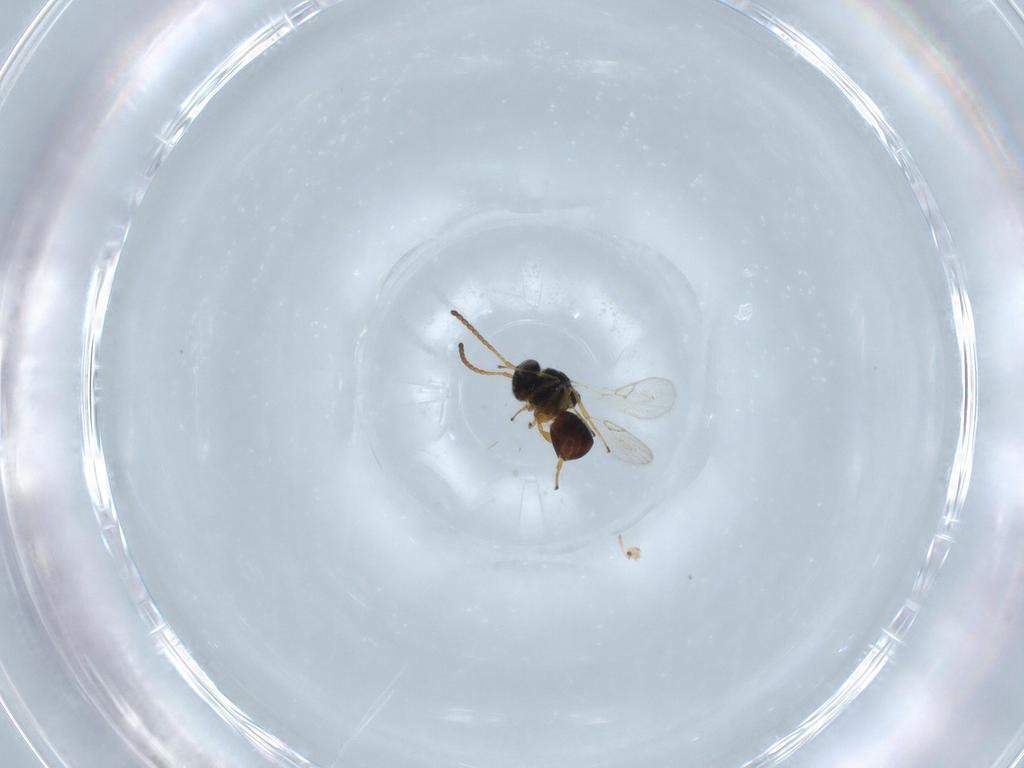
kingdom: Animalia
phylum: Arthropoda
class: Insecta
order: Hymenoptera
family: Figitidae
